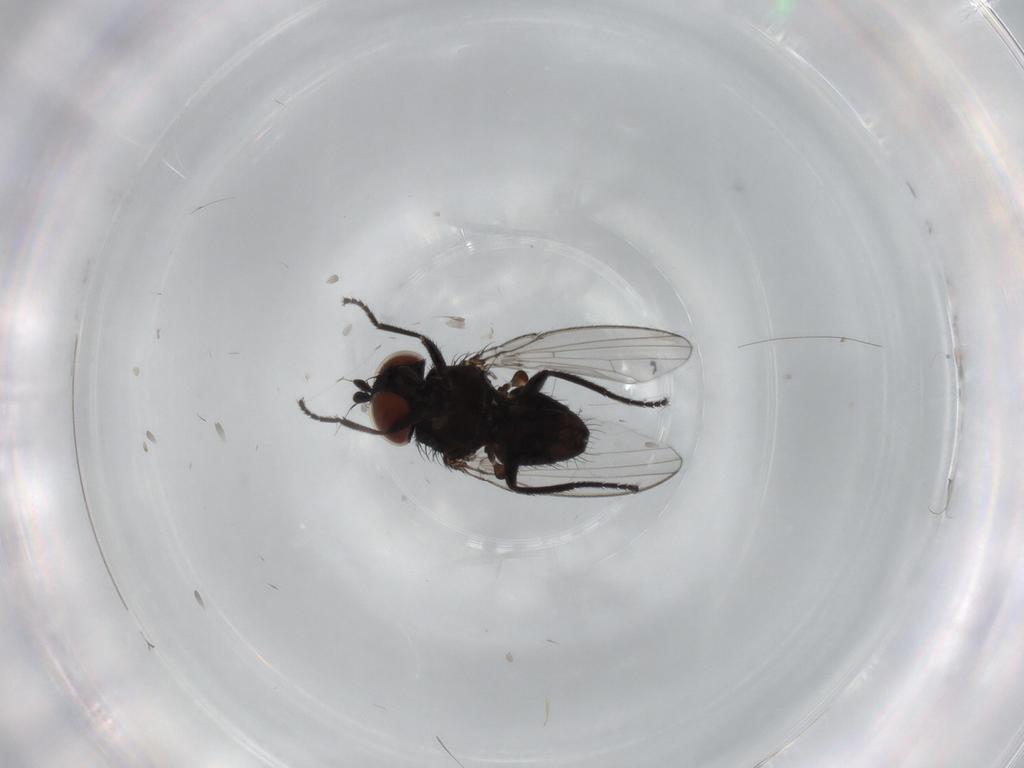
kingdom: Animalia
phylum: Arthropoda
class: Insecta
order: Diptera
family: Milichiidae
